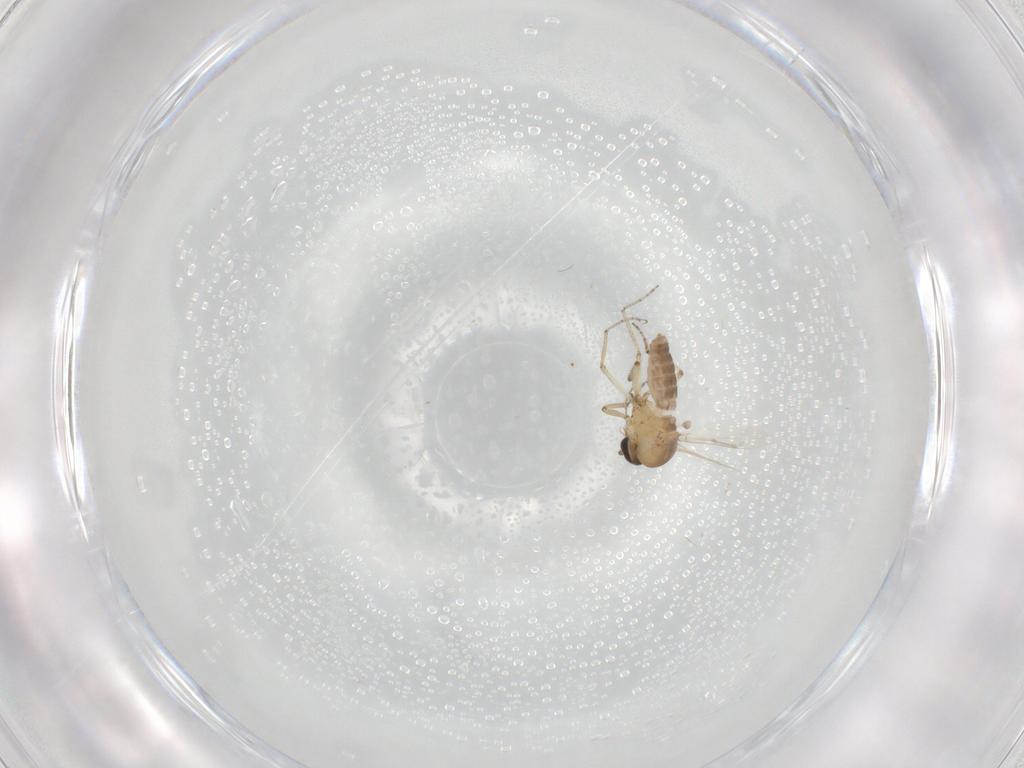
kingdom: Animalia
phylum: Arthropoda
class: Insecta
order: Diptera
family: Ceratopogonidae
